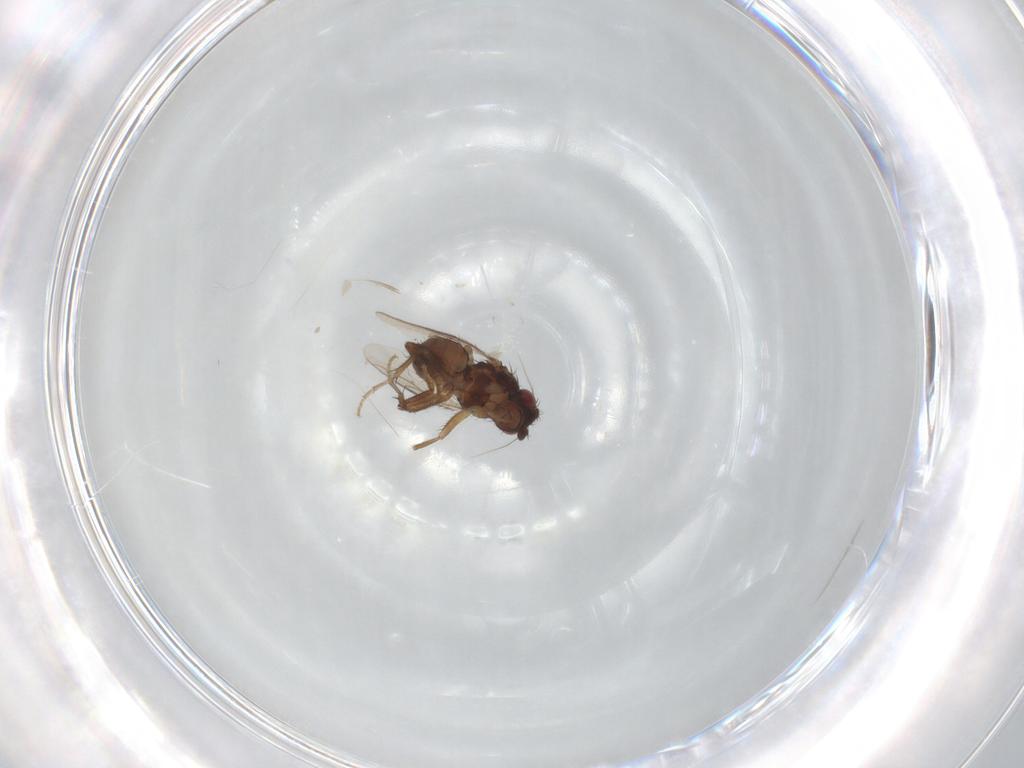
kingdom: Animalia
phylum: Arthropoda
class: Insecta
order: Diptera
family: Sphaeroceridae
